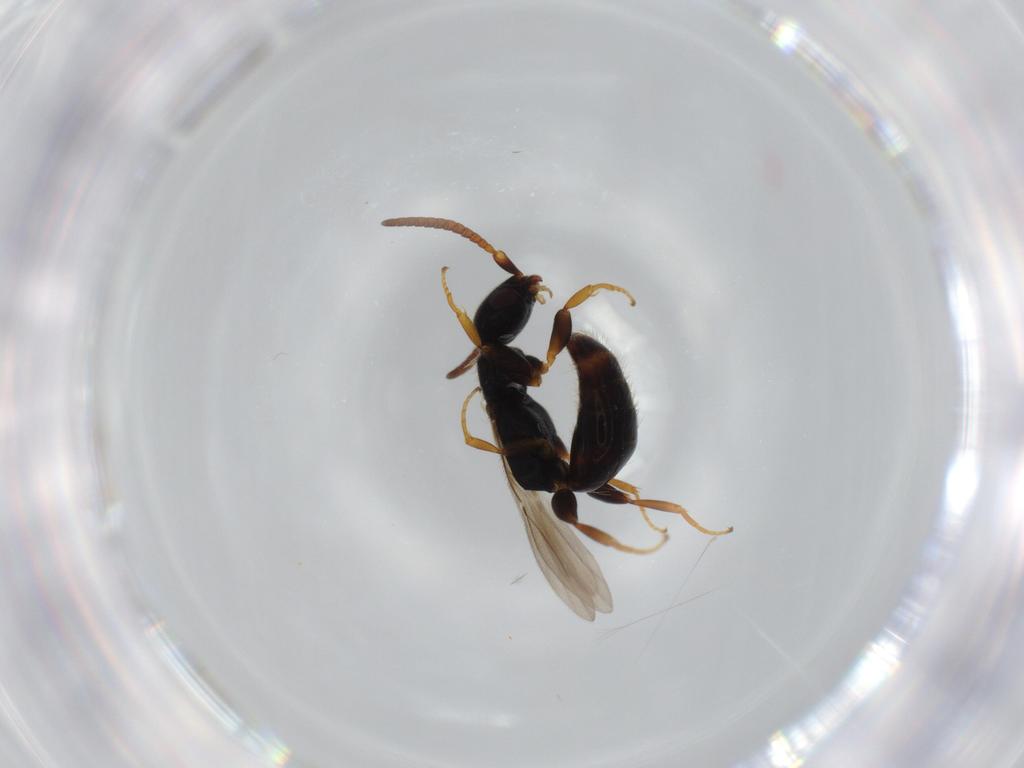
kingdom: Animalia
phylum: Arthropoda
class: Insecta
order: Hymenoptera
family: Bethylidae
